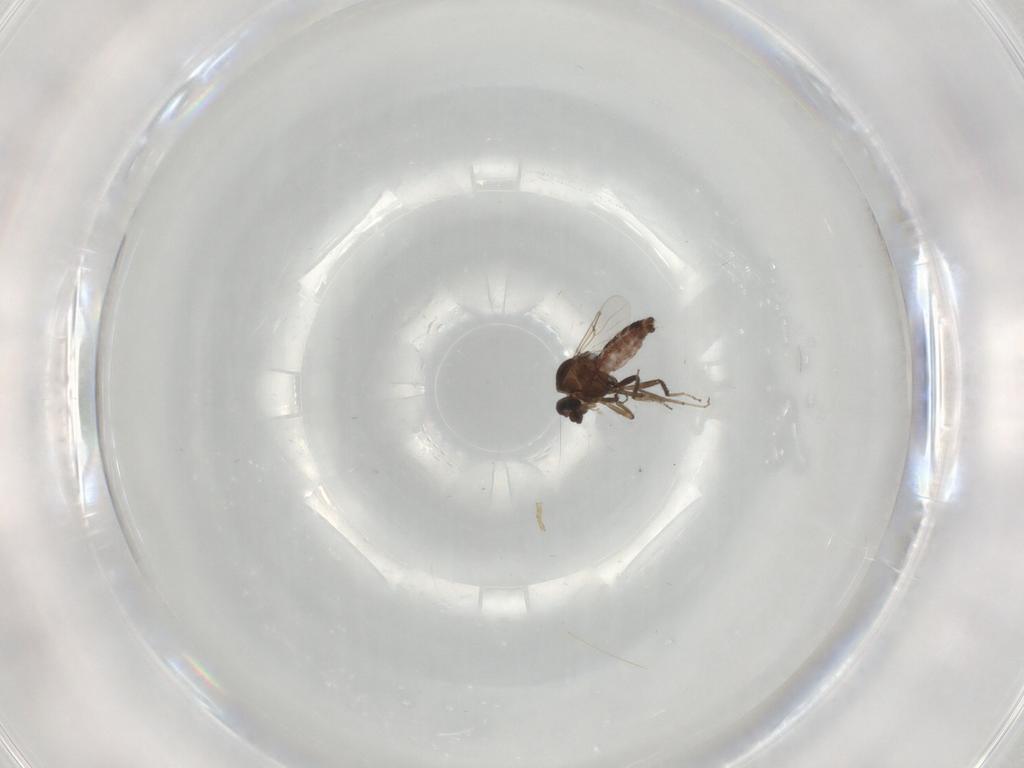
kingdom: Animalia
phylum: Arthropoda
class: Insecta
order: Diptera
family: Ceratopogonidae
